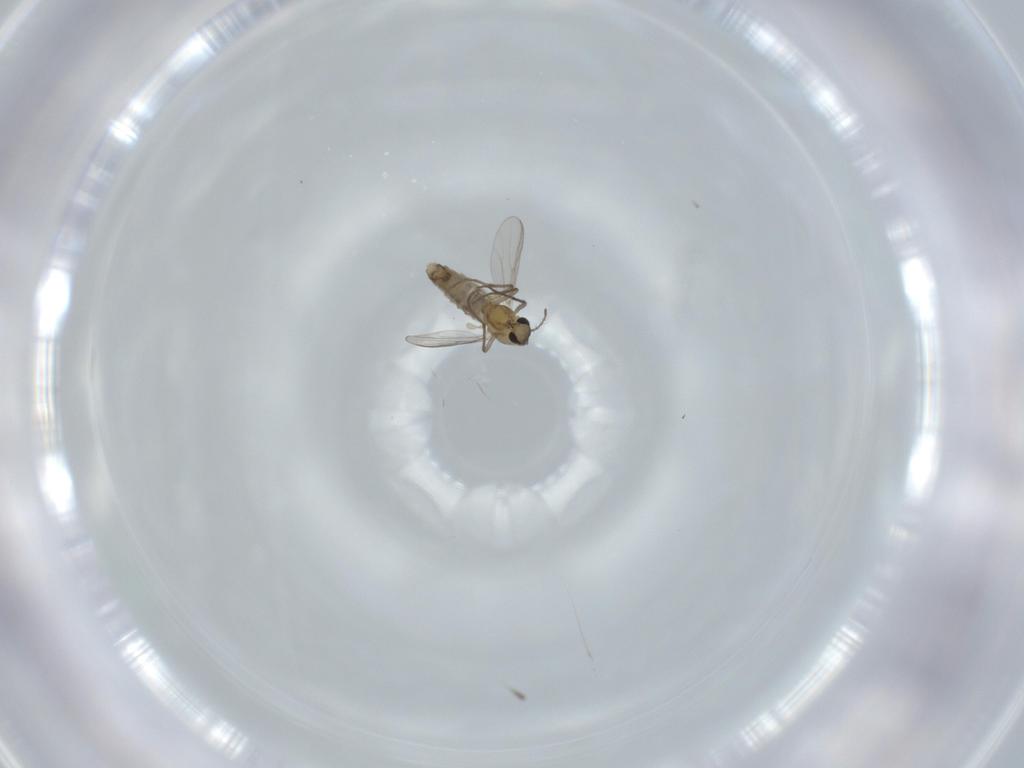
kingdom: Animalia
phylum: Arthropoda
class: Insecta
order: Diptera
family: Chironomidae
